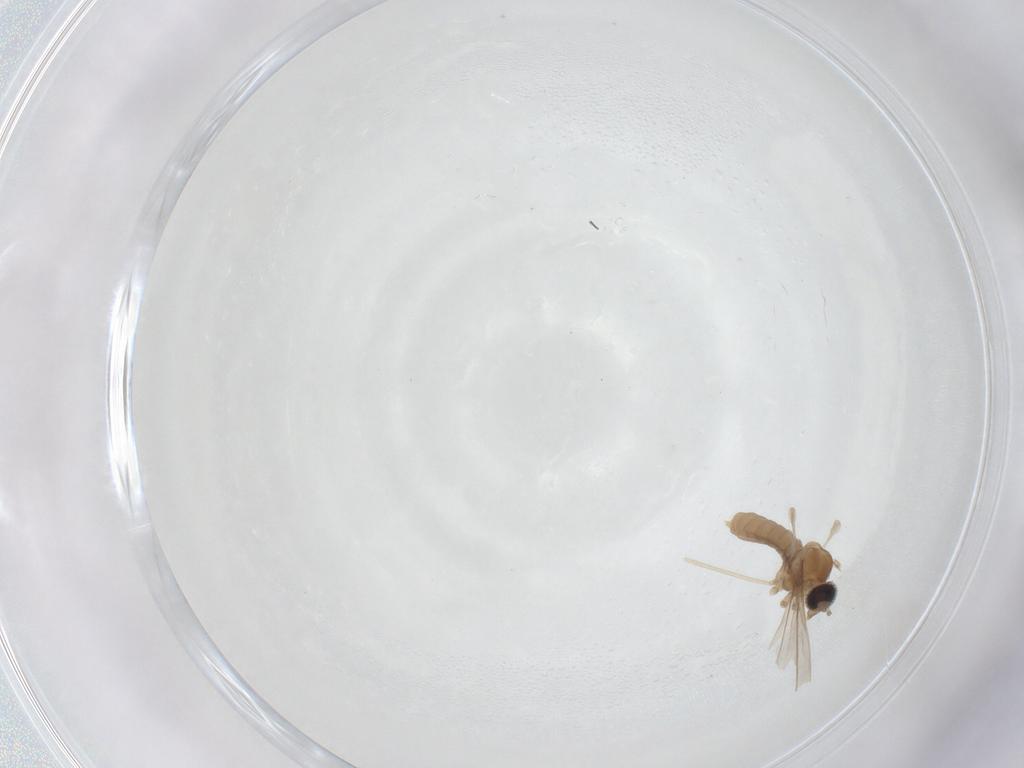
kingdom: Animalia
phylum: Arthropoda
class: Insecta
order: Diptera
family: Cecidomyiidae
